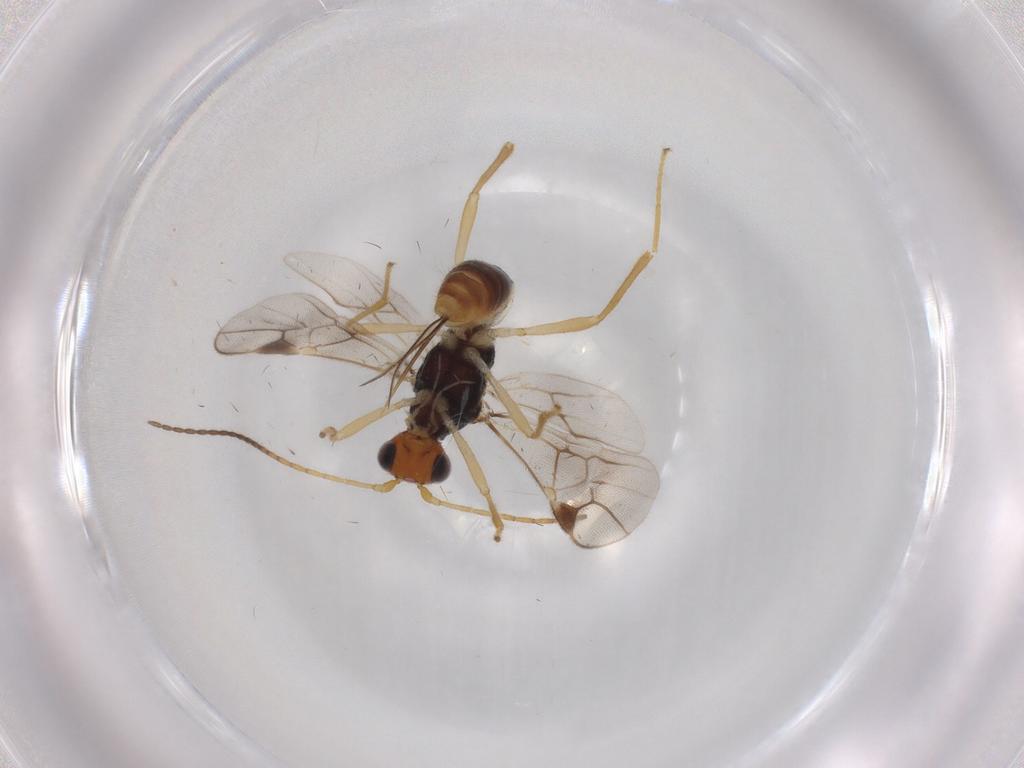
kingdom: Animalia
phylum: Arthropoda
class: Insecta
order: Hymenoptera
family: Braconidae
